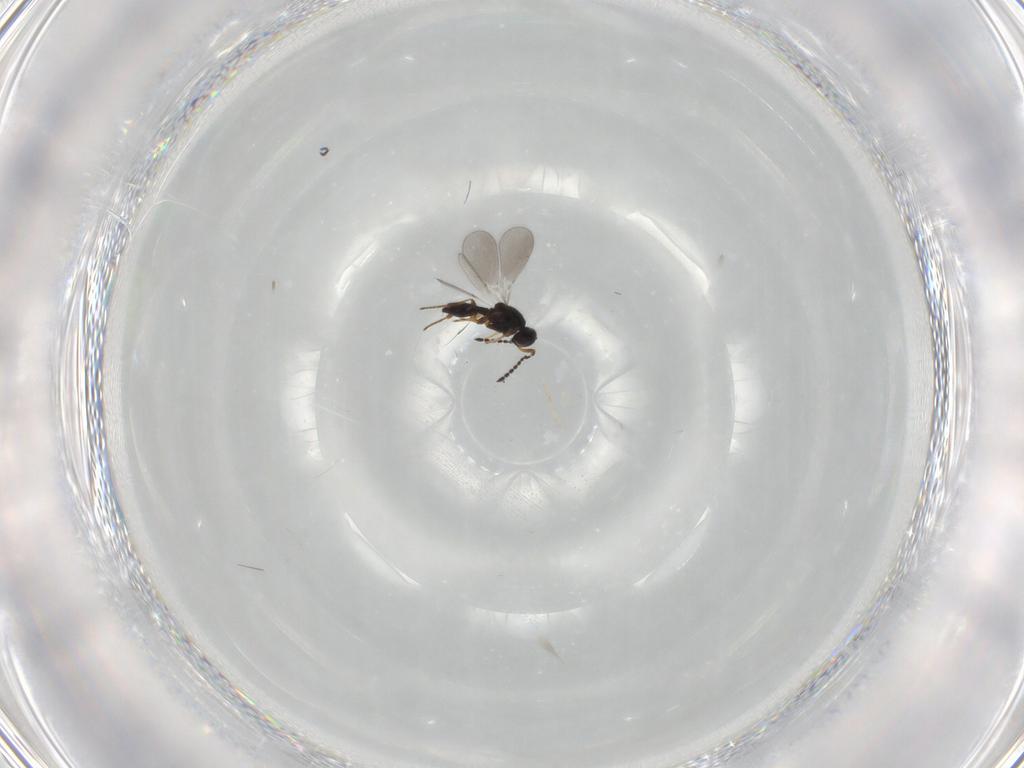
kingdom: Animalia
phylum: Arthropoda
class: Insecta
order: Hymenoptera
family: Platygastridae
